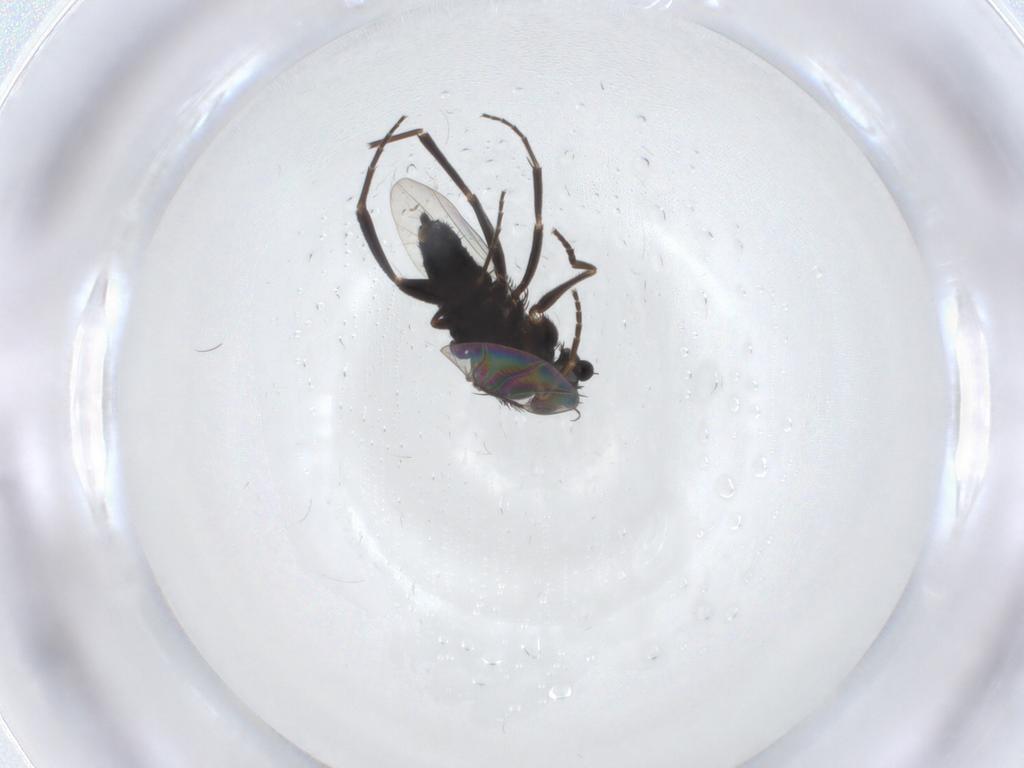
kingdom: Animalia
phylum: Arthropoda
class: Insecta
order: Diptera
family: Phoridae
